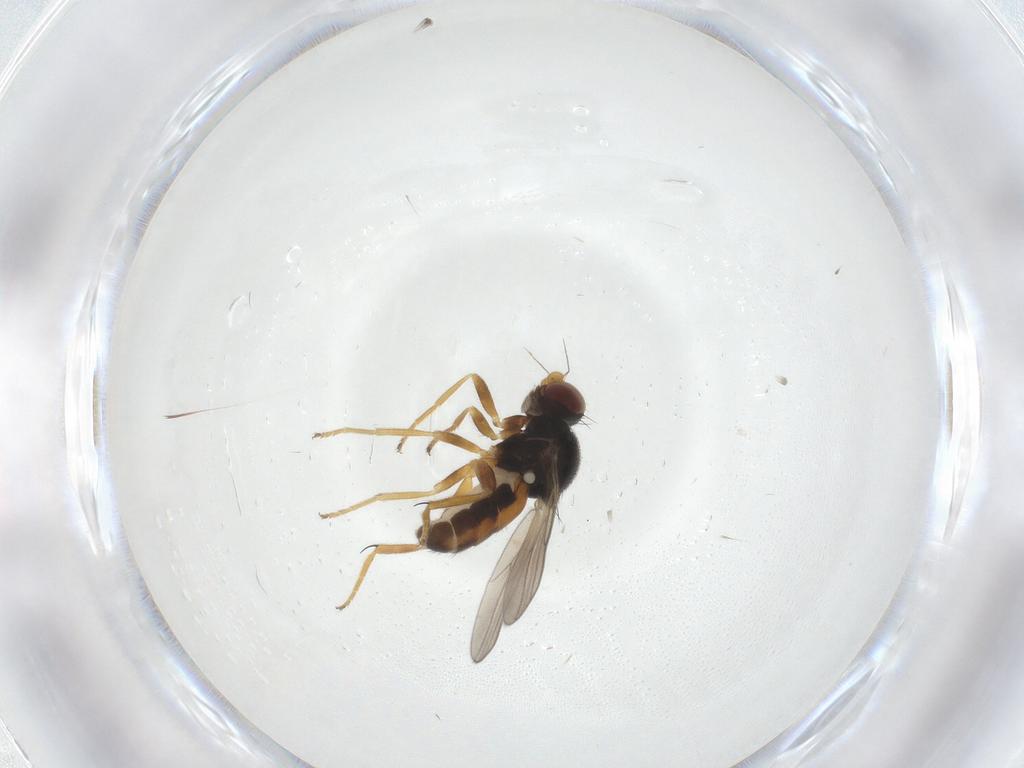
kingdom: Animalia
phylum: Arthropoda
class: Insecta
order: Diptera
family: Chloropidae
